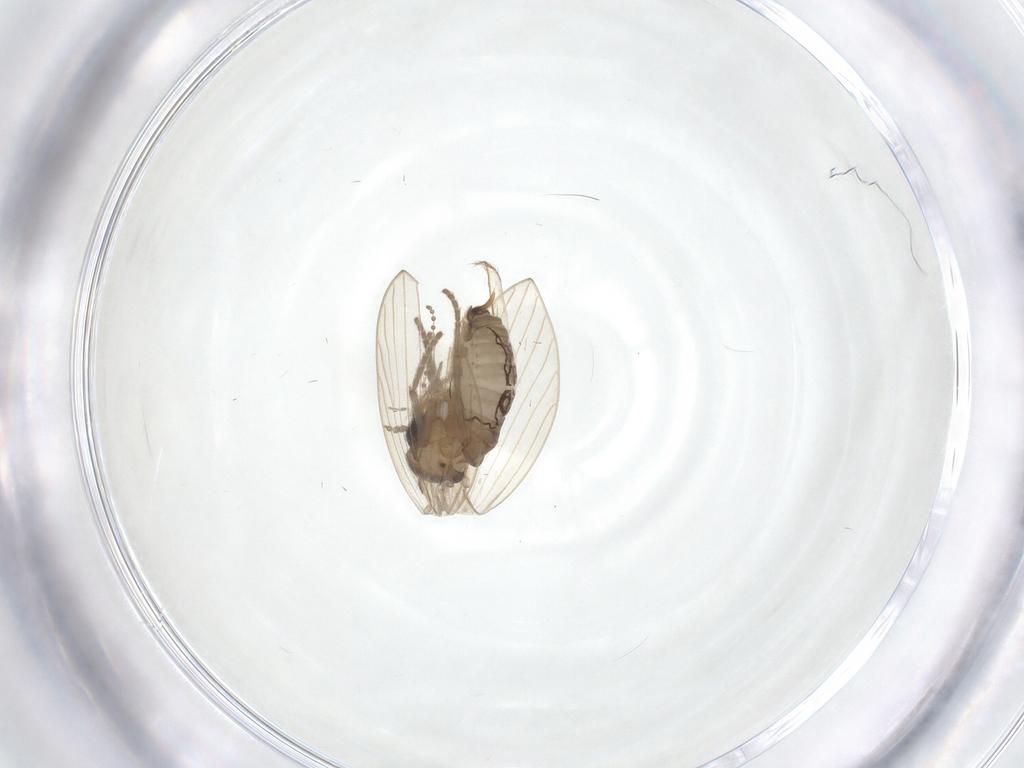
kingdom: Animalia
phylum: Arthropoda
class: Insecta
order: Diptera
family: Psychodidae
